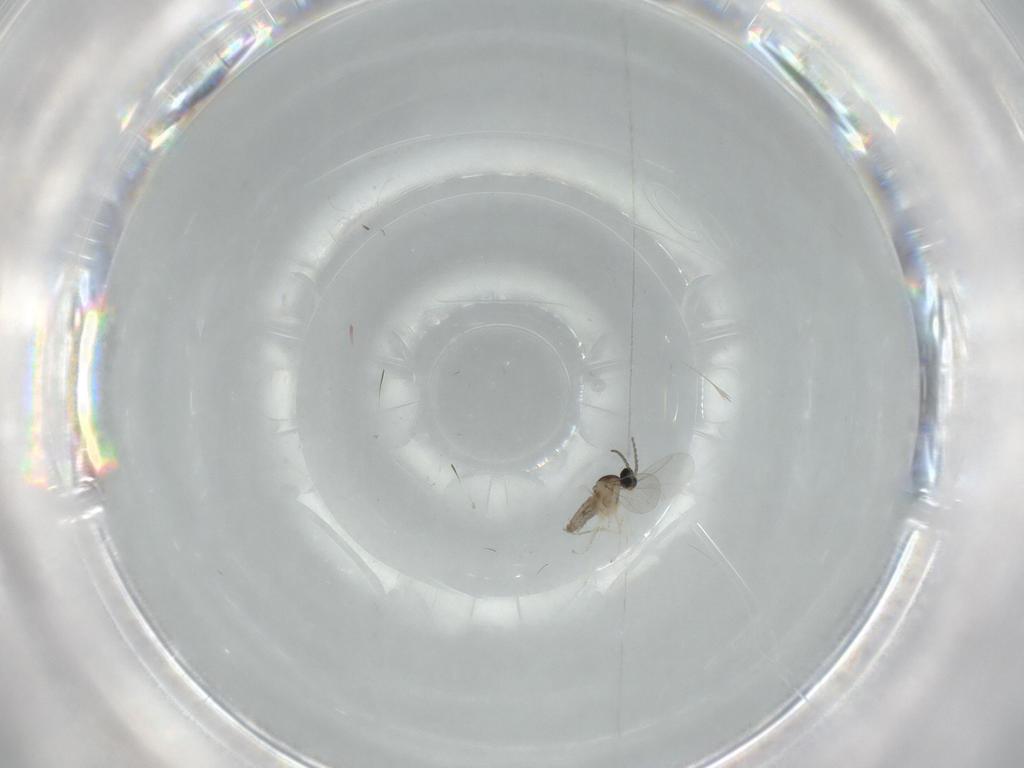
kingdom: Animalia
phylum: Arthropoda
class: Insecta
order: Diptera
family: Cecidomyiidae
